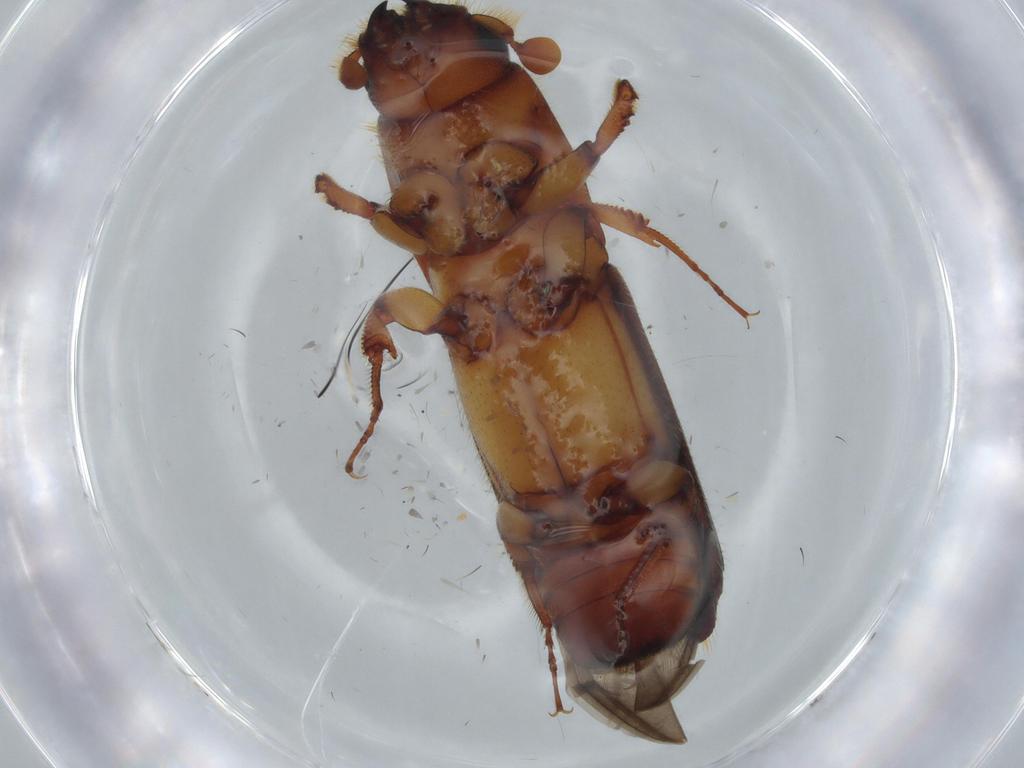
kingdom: Animalia
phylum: Arthropoda
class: Insecta
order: Coleoptera
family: Curculionidae
